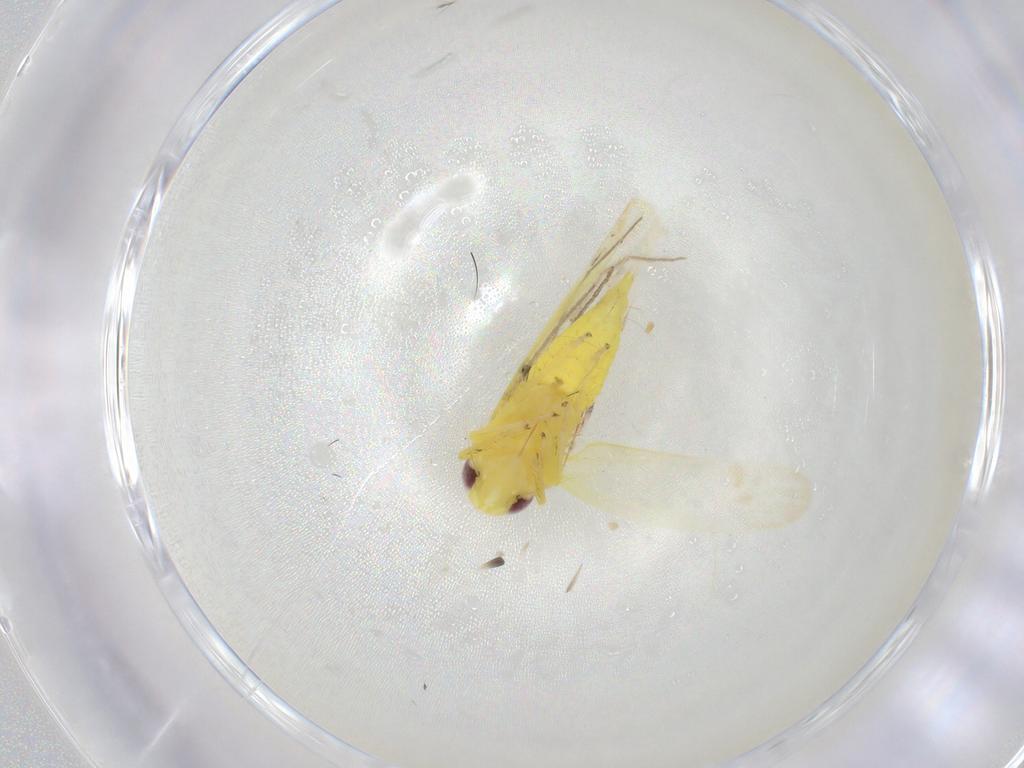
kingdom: Animalia
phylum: Arthropoda
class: Insecta
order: Hemiptera
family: Cicadellidae
